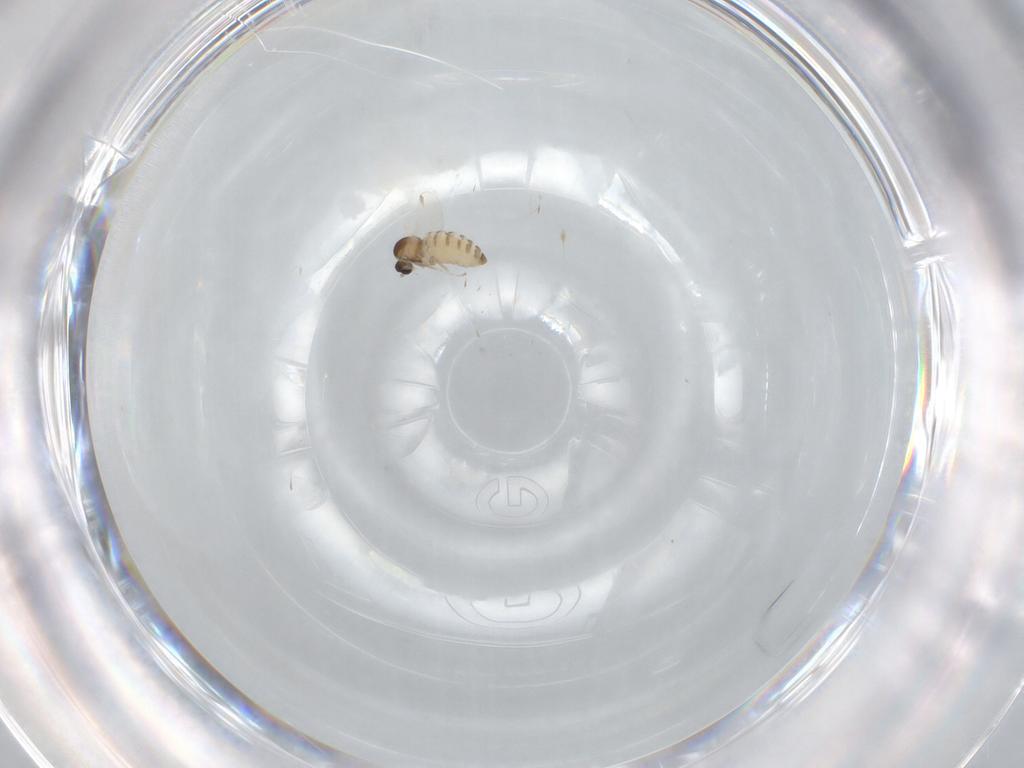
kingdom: Animalia
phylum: Arthropoda
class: Insecta
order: Diptera
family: Cecidomyiidae
